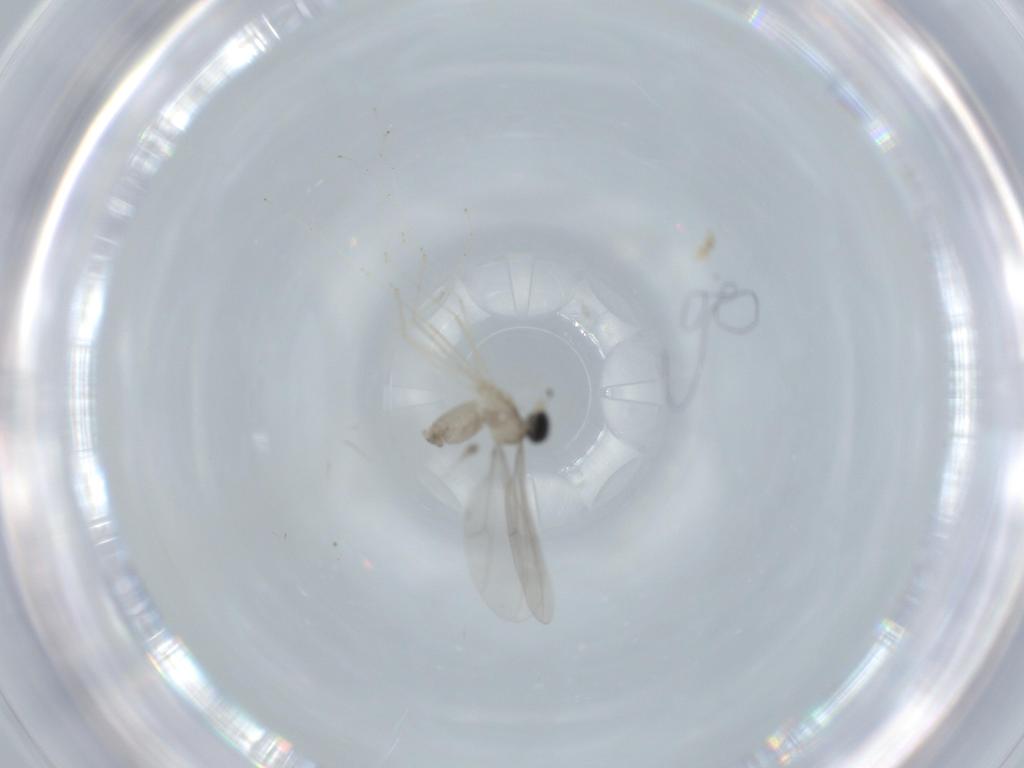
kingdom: Animalia
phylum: Arthropoda
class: Insecta
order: Diptera
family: Cecidomyiidae
